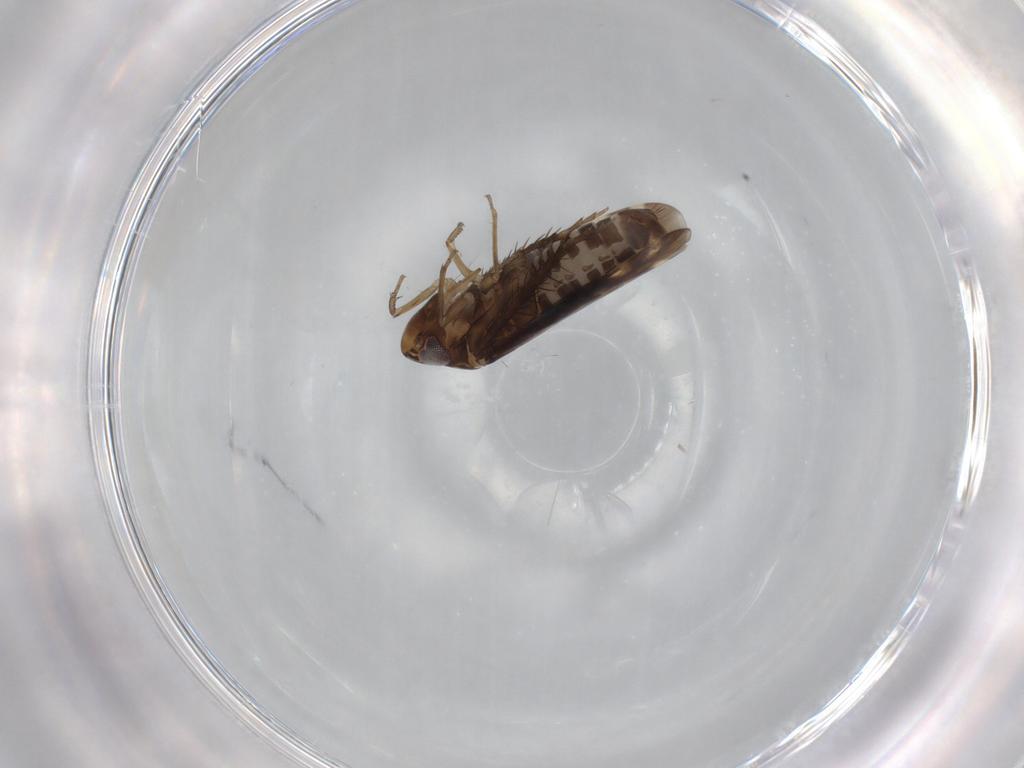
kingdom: Animalia
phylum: Arthropoda
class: Insecta
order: Hemiptera
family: Cicadellidae
